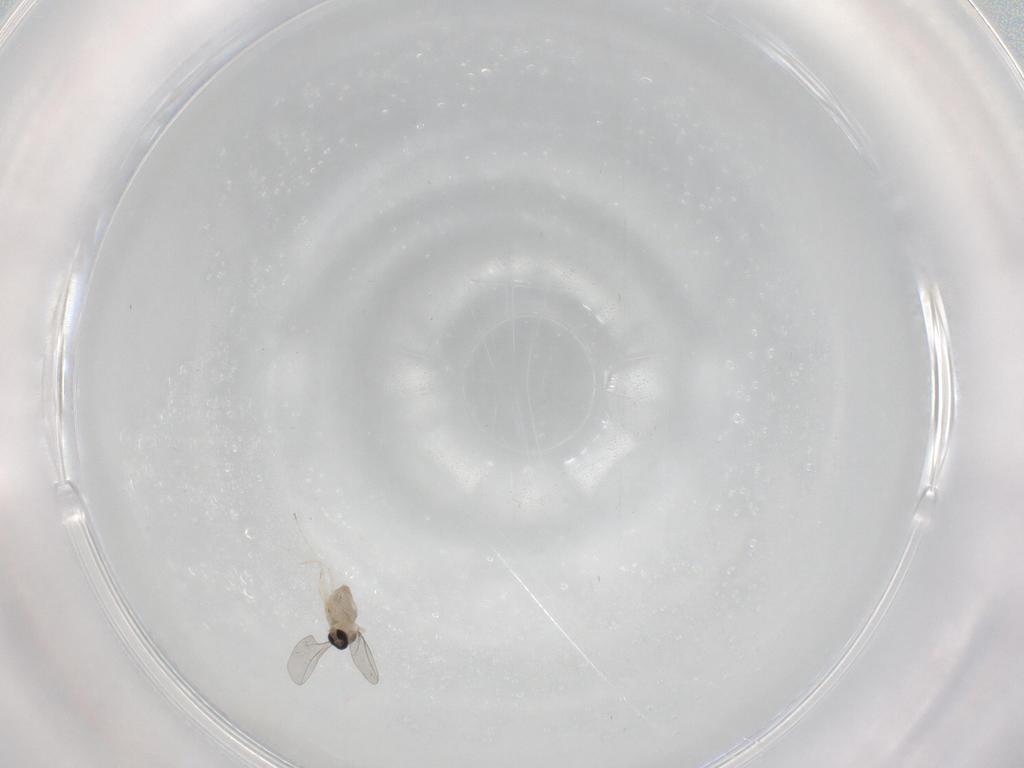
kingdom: Animalia
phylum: Arthropoda
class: Insecta
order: Diptera
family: Cecidomyiidae
